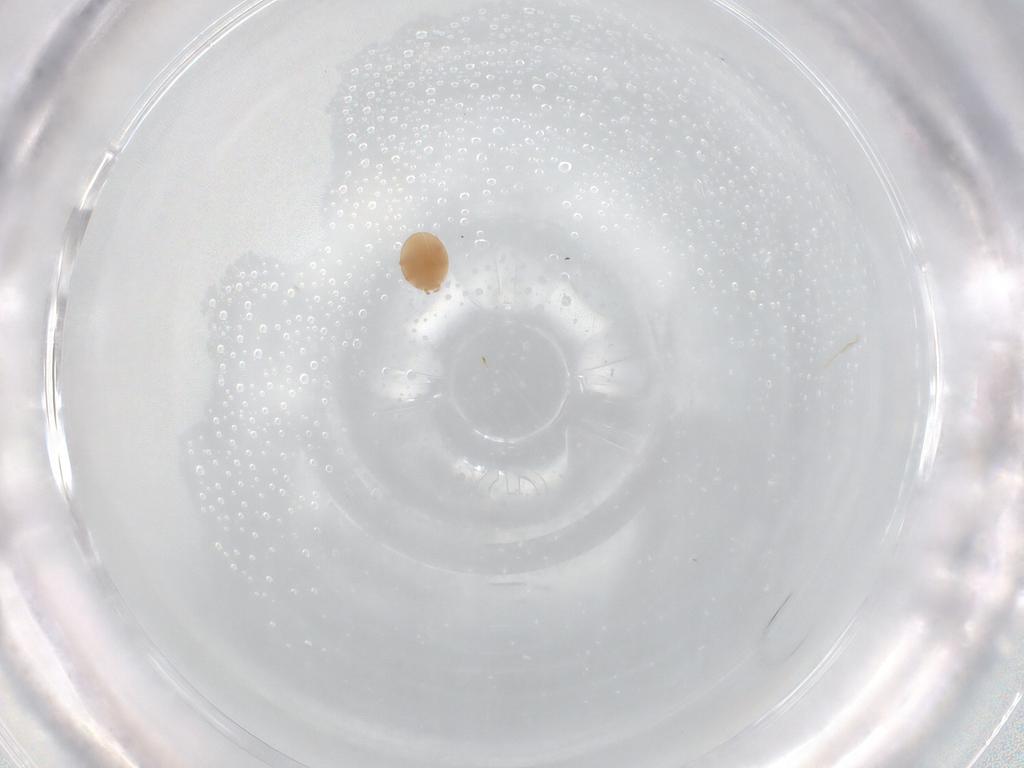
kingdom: Animalia
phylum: Arthropoda
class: Arachnida
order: Mesostigmata
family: Trematuridae
